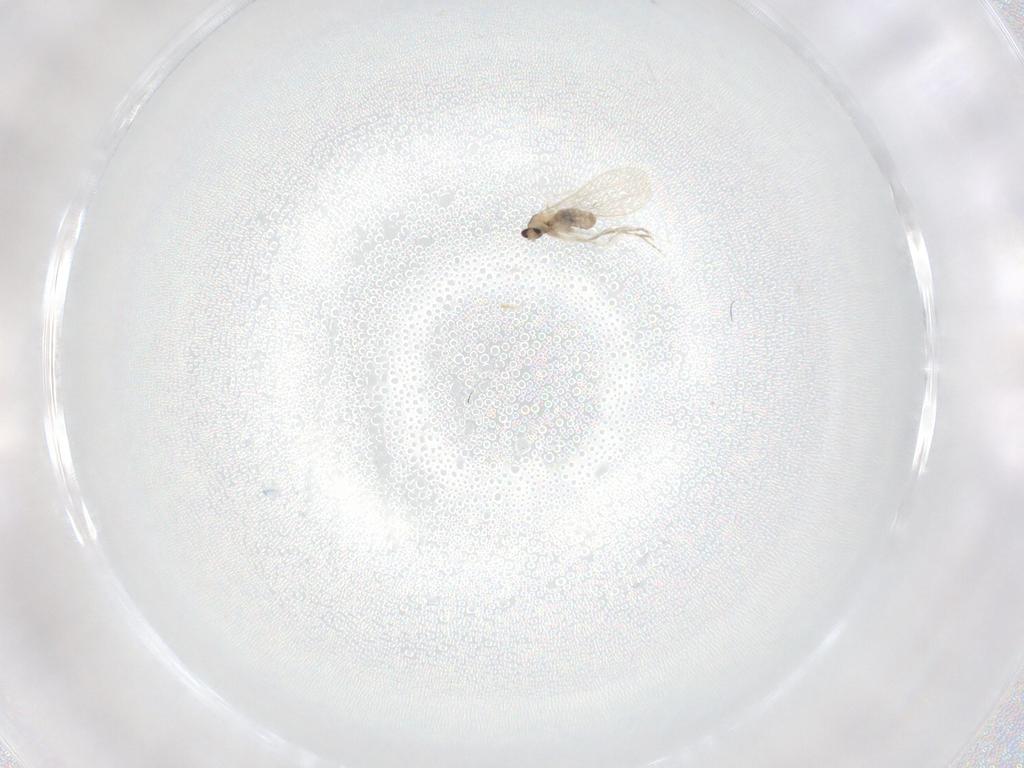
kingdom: Animalia
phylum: Arthropoda
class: Insecta
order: Diptera
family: Cecidomyiidae
